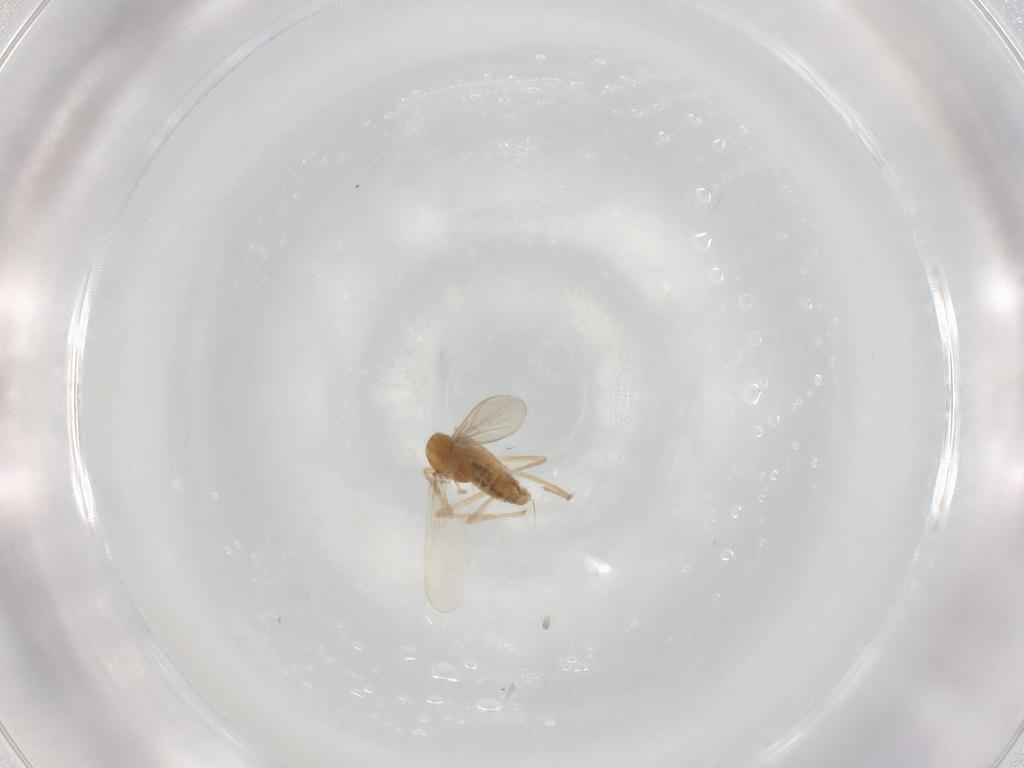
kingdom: Animalia
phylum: Arthropoda
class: Insecta
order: Diptera
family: Chironomidae
